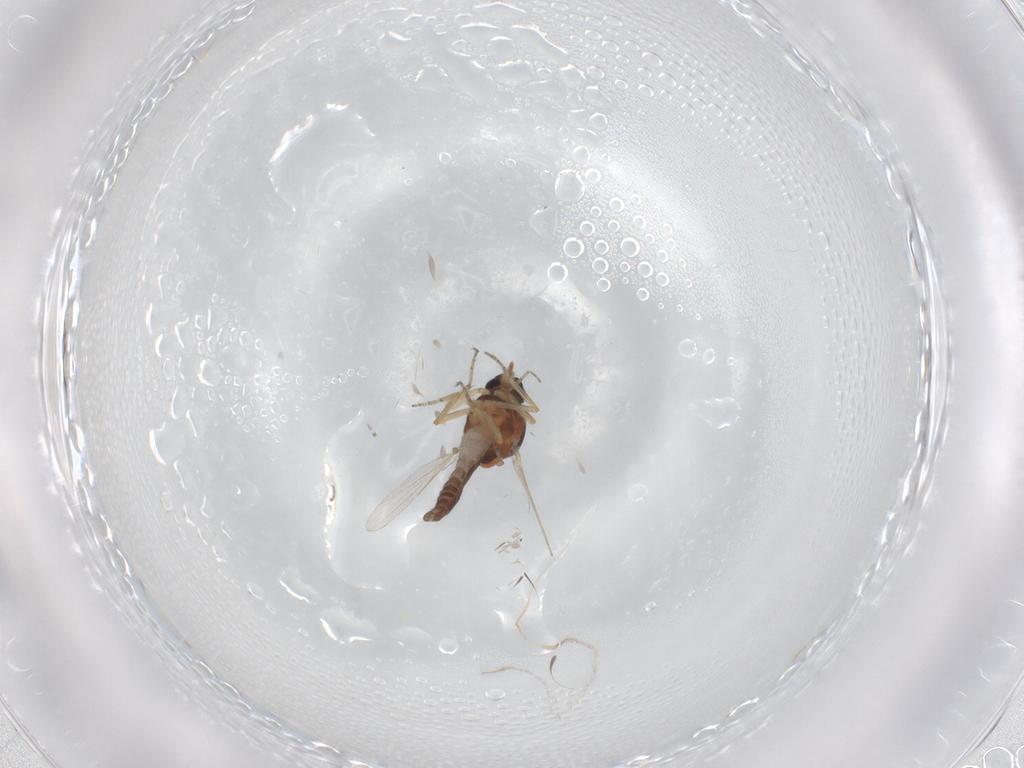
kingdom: Animalia
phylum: Arthropoda
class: Insecta
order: Diptera
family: Ceratopogonidae
